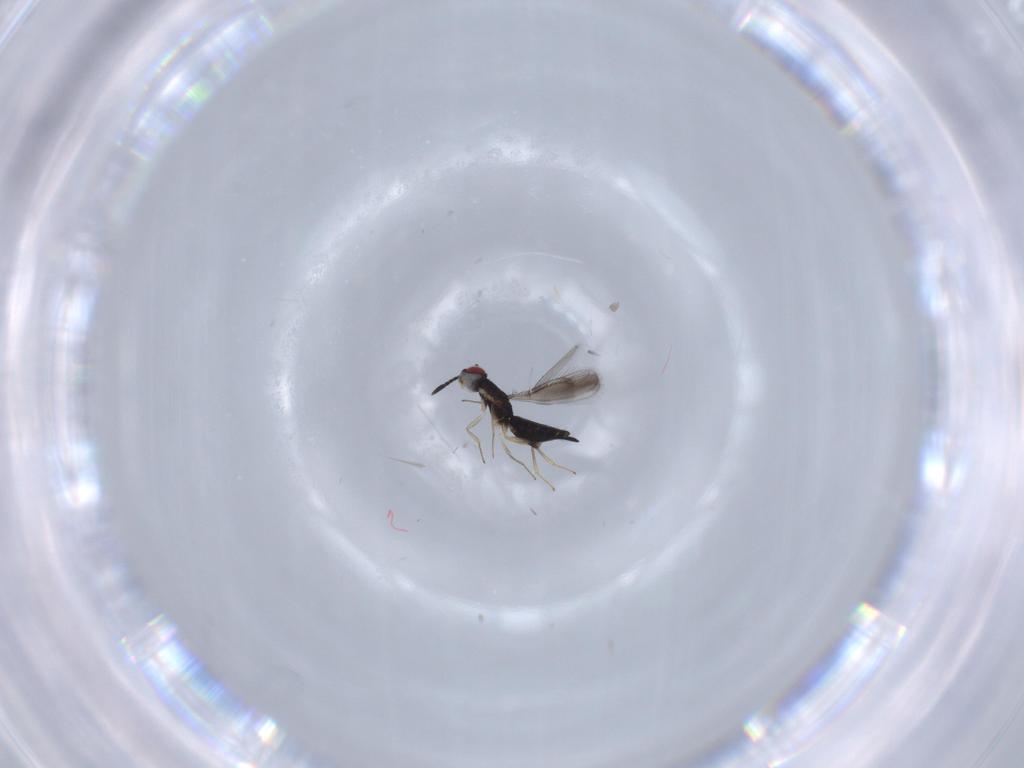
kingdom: Animalia
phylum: Arthropoda
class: Insecta
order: Hymenoptera
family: Pteromalidae
